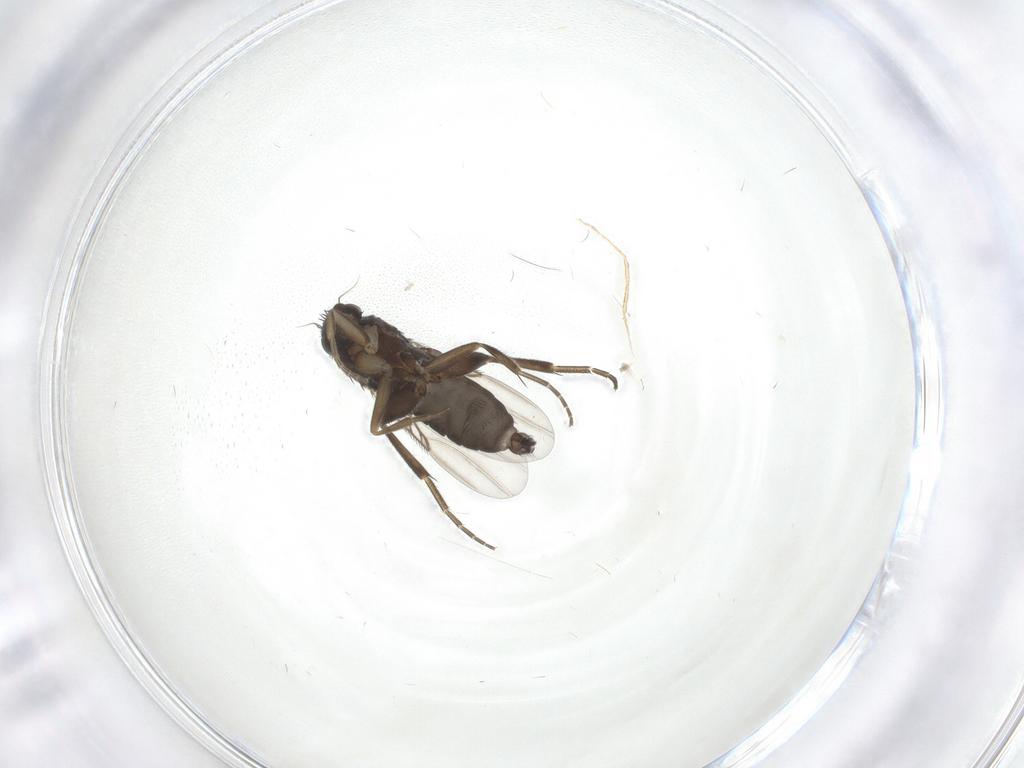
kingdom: Animalia
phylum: Arthropoda
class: Insecta
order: Diptera
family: Phoridae
